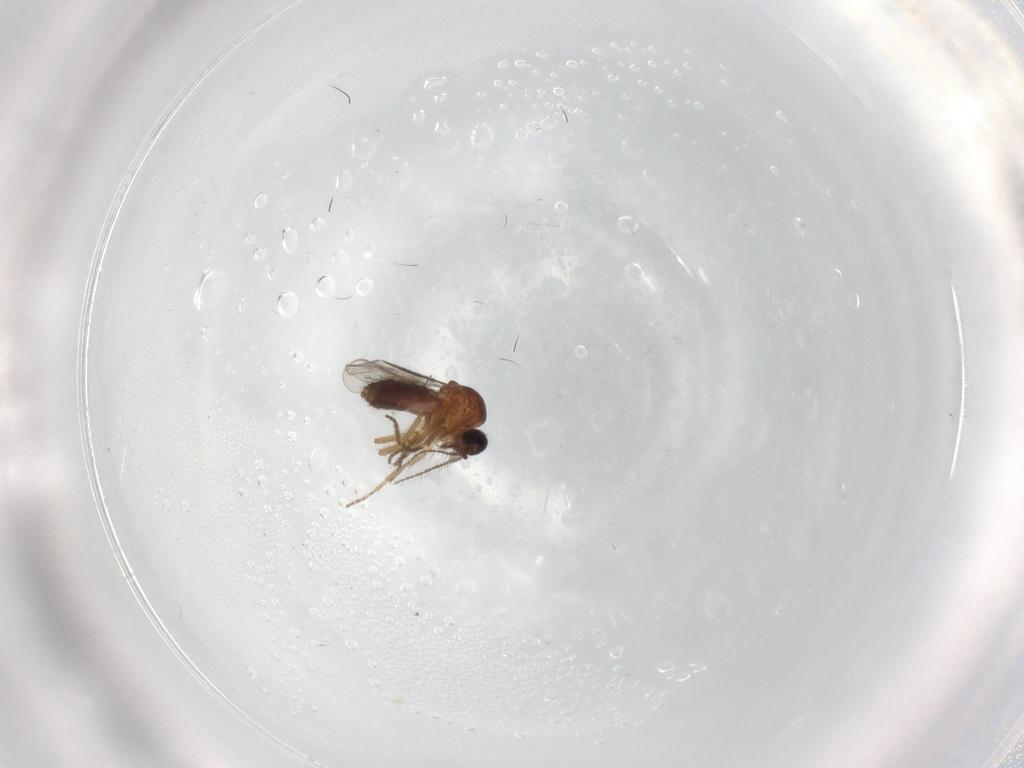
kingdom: Animalia
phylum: Arthropoda
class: Insecta
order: Diptera
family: Ceratopogonidae
